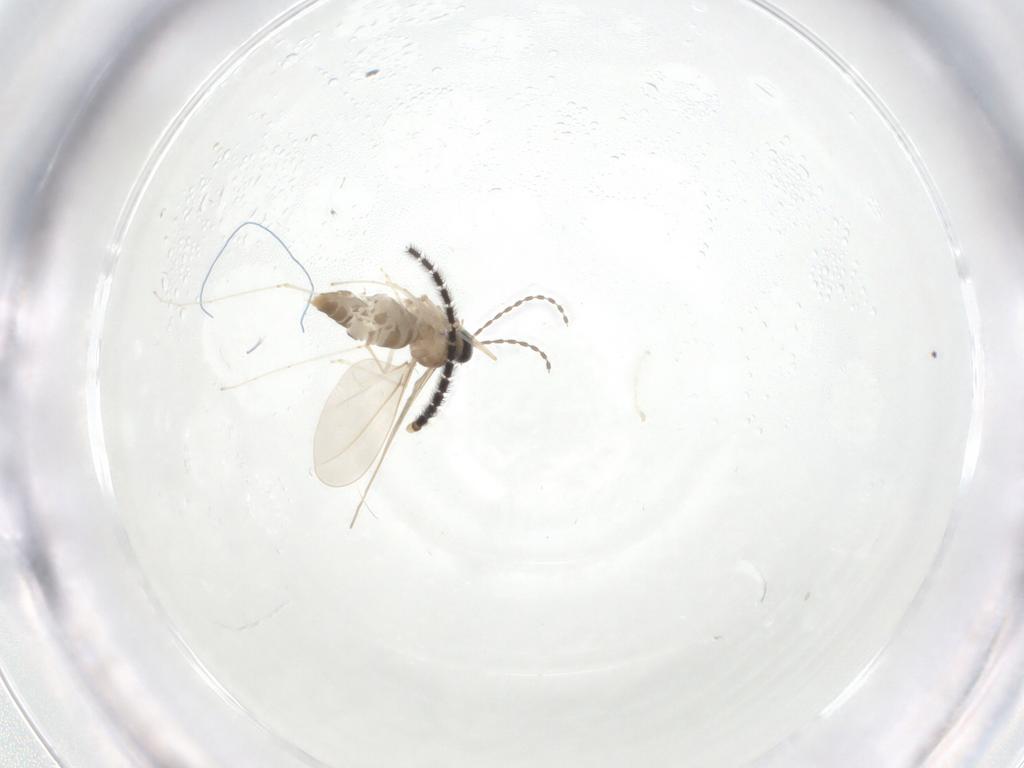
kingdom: Animalia
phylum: Arthropoda
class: Insecta
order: Diptera
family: Cecidomyiidae
